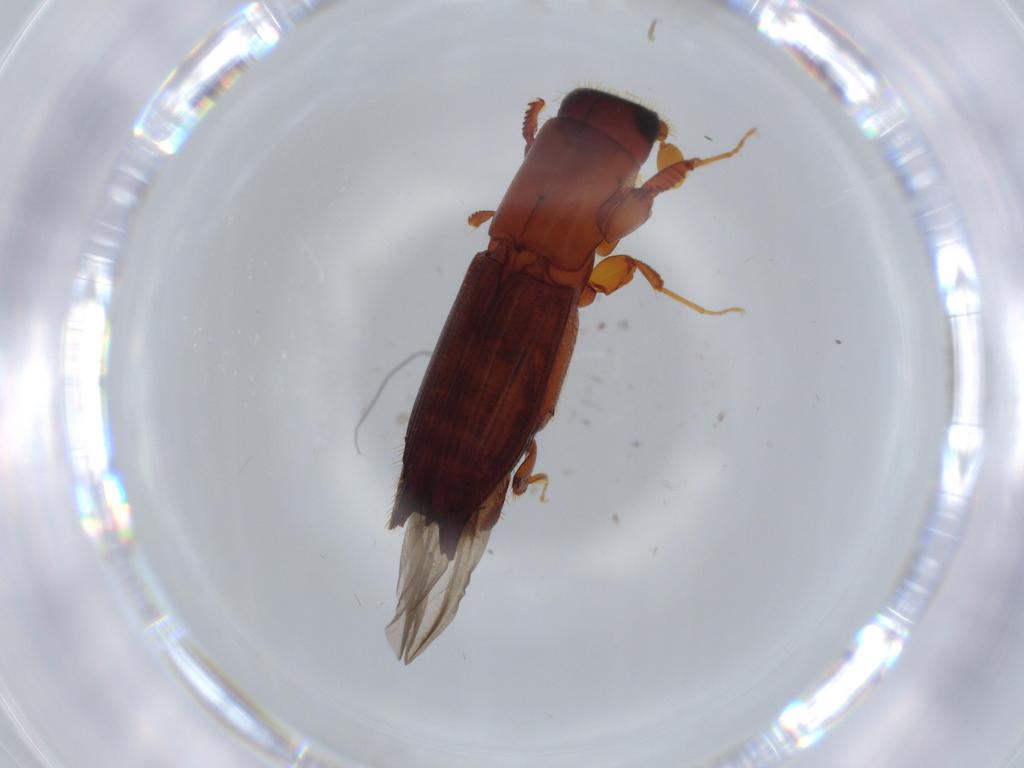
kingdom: Animalia
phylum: Arthropoda
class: Insecta
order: Coleoptera
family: Curculionidae
